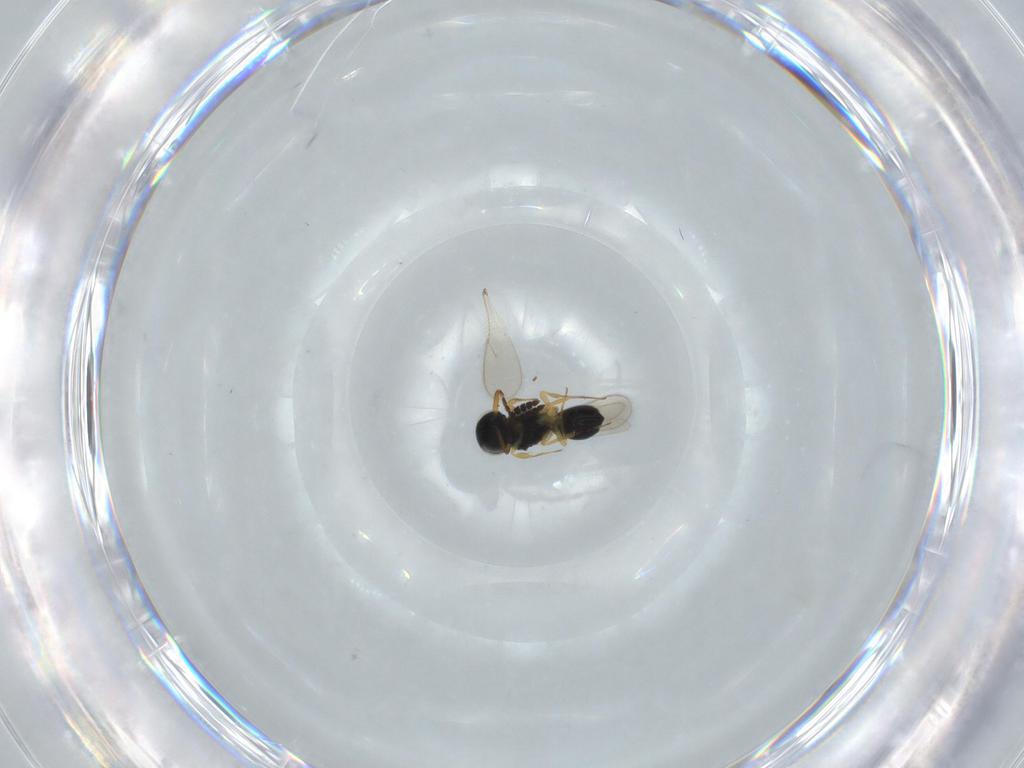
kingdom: Animalia
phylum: Arthropoda
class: Insecta
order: Hymenoptera
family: Scelionidae
